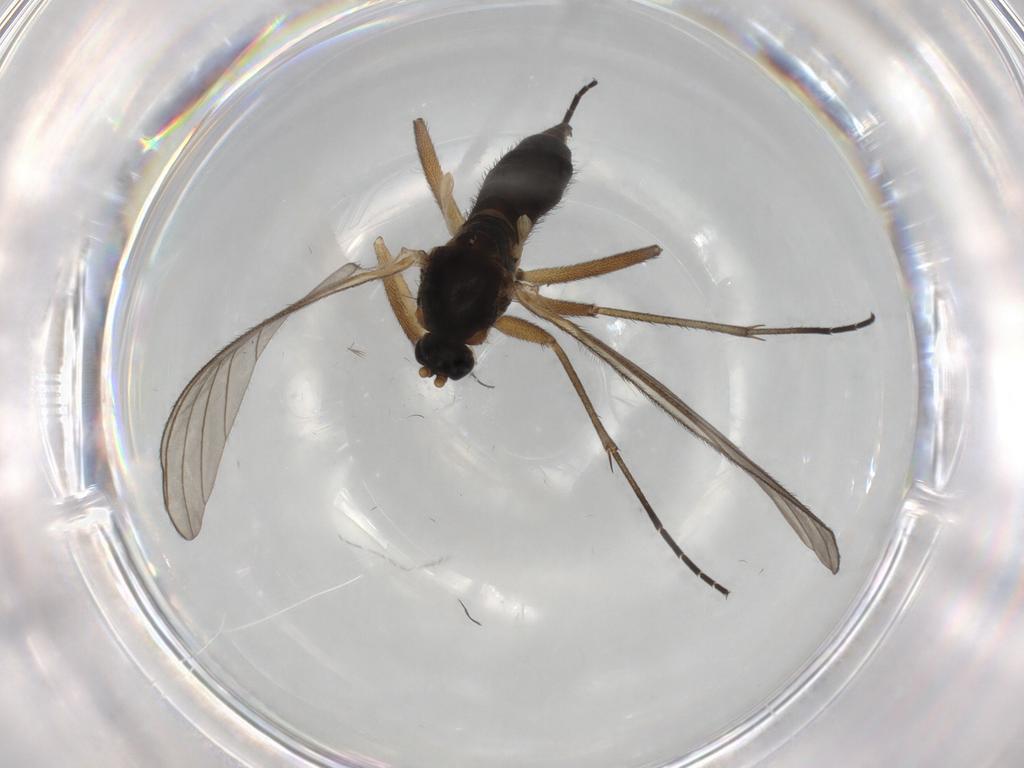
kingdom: Animalia
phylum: Arthropoda
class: Insecta
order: Diptera
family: Sciaridae
